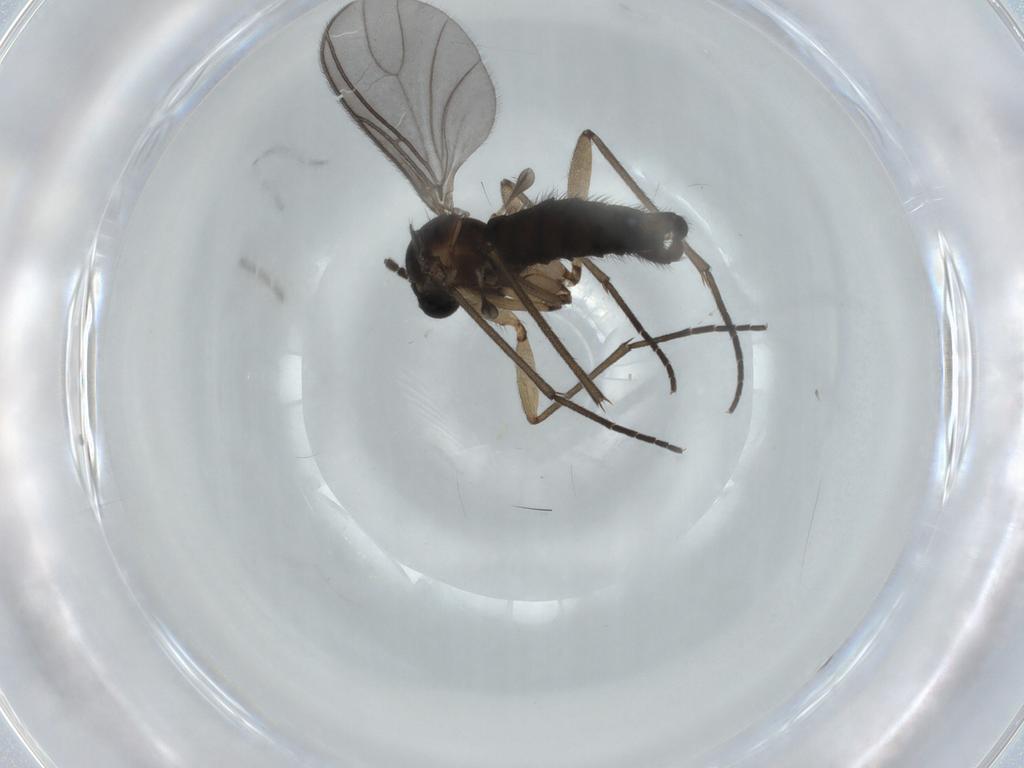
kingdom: Animalia
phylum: Arthropoda
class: Insecta
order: Diptera
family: Sciaridae
